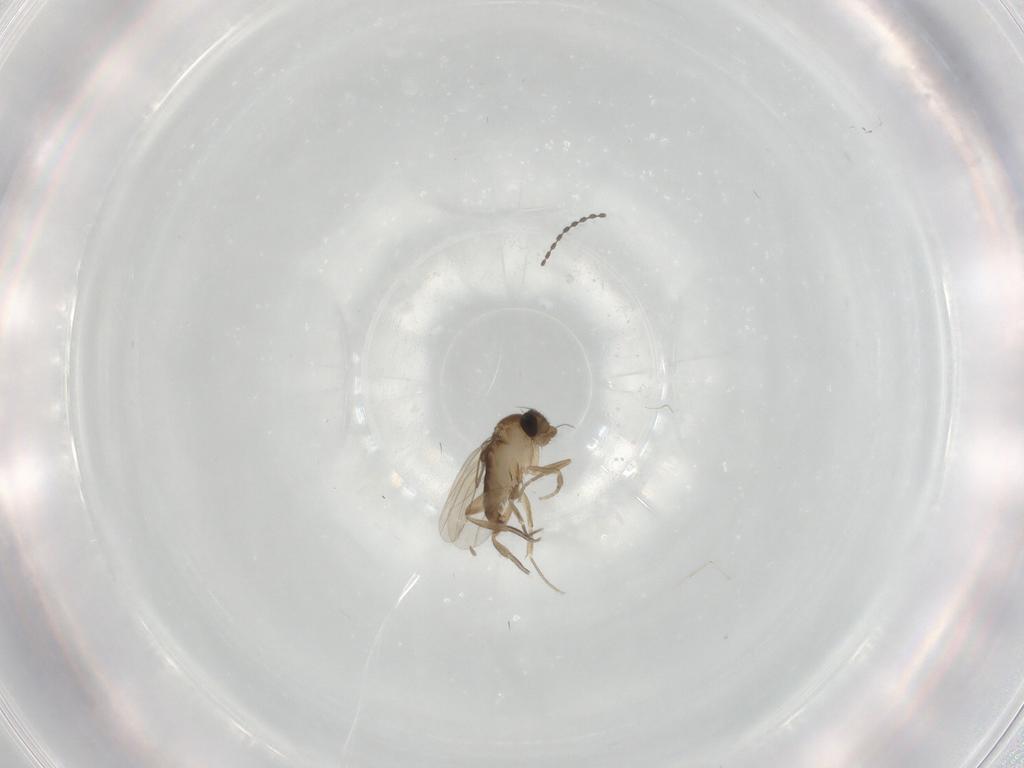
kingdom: Animalia
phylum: Arthropoda
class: Insecta
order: Diptera
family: Phoridae
